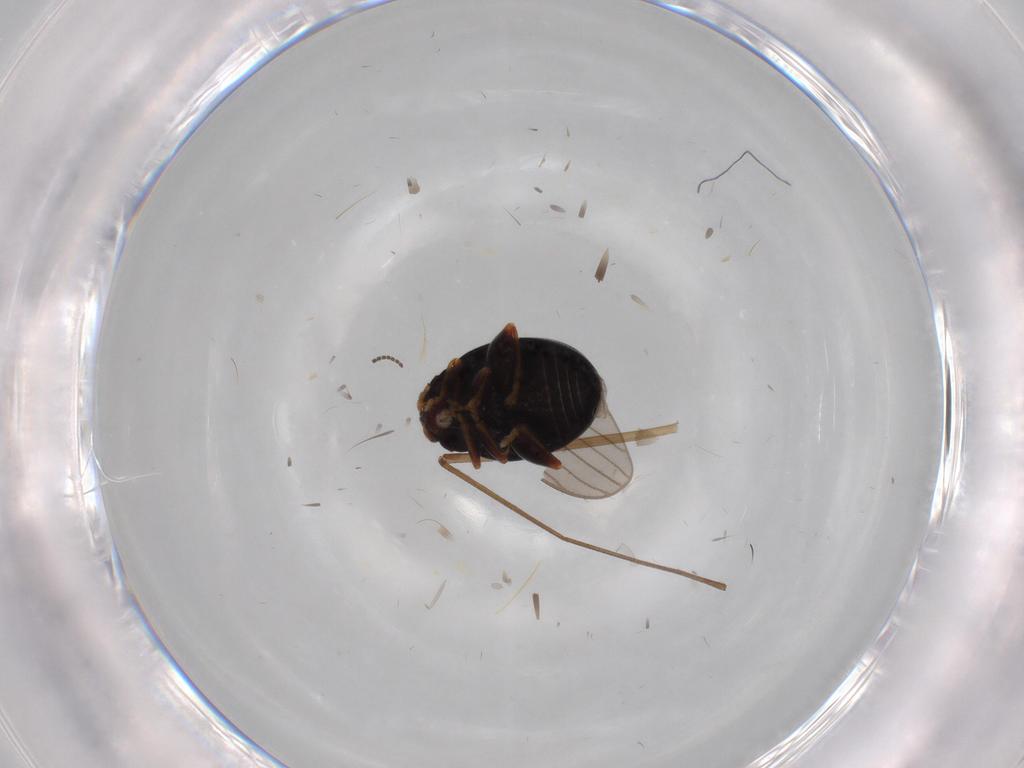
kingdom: Animalia
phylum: Arthropoda
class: Insecta
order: Coleoptera
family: Chrysomelidae
